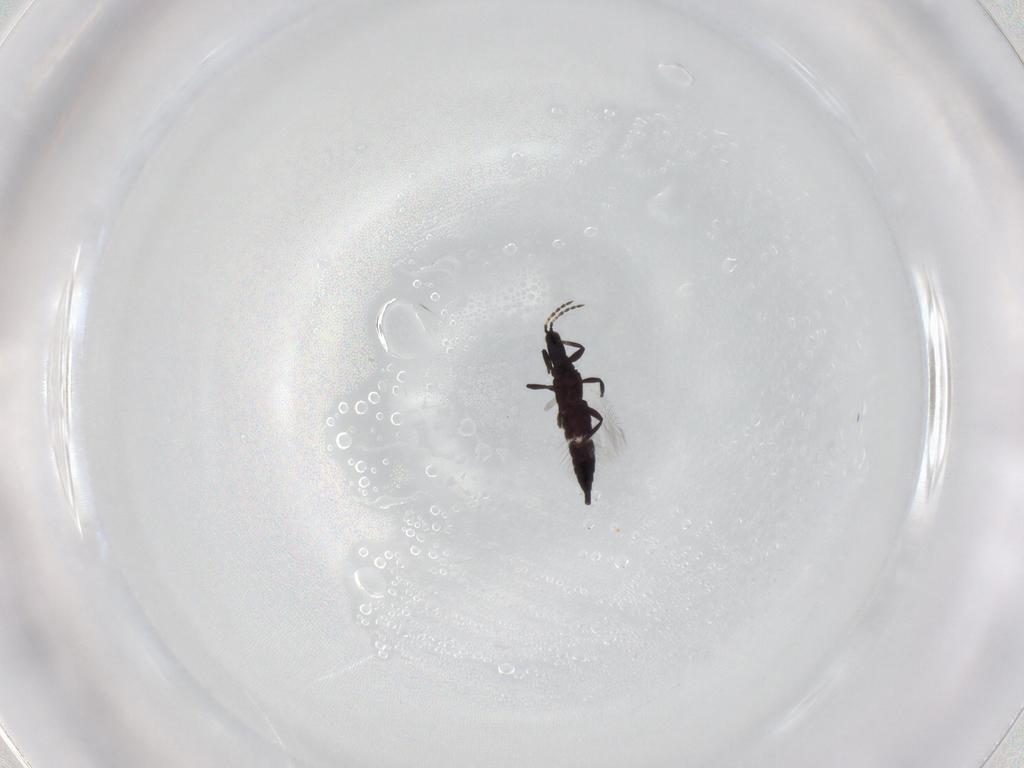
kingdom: Animalia
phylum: Arthropoda
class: Insecta
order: Thysanoptera
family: Phlaeothripidae
